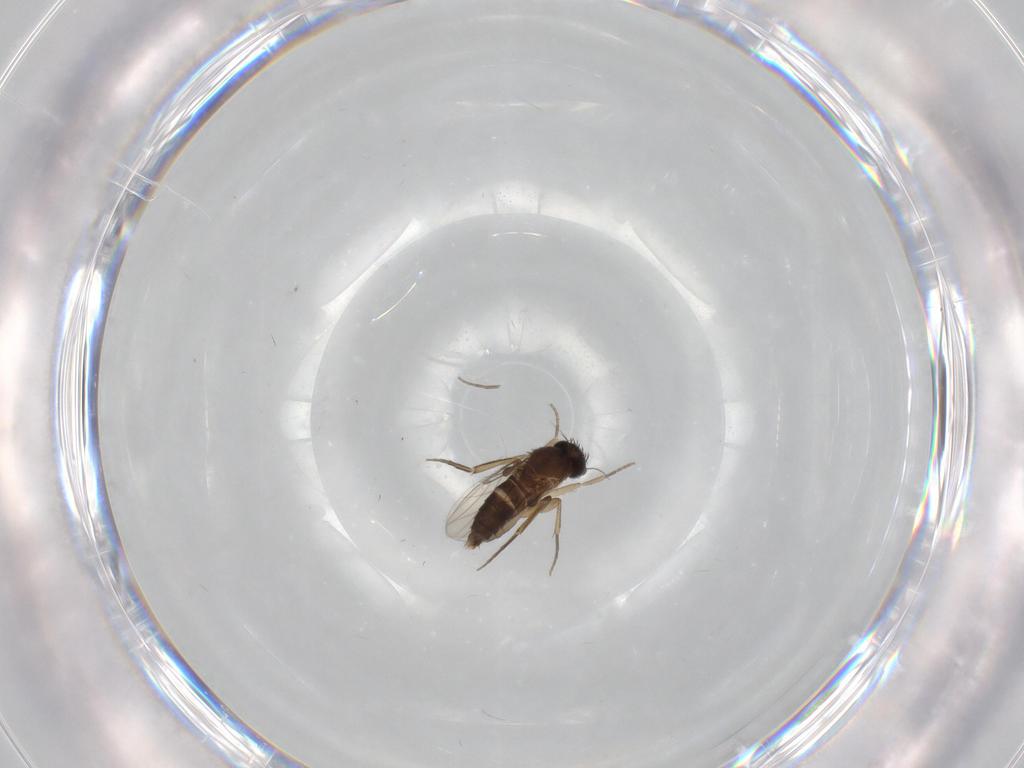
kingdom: Animalia
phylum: Arthropoda
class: Insecta
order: Diptera
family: Phoridae
